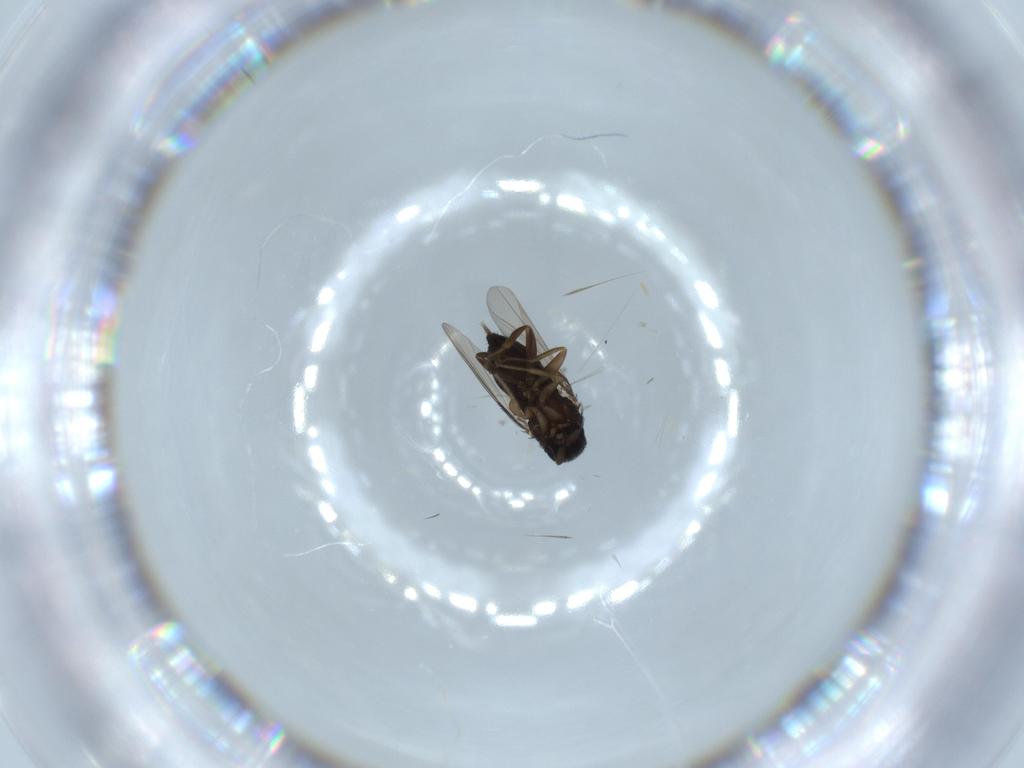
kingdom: Animalia
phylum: Arthropoda
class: Insecta
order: Diptera
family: Phoridae
